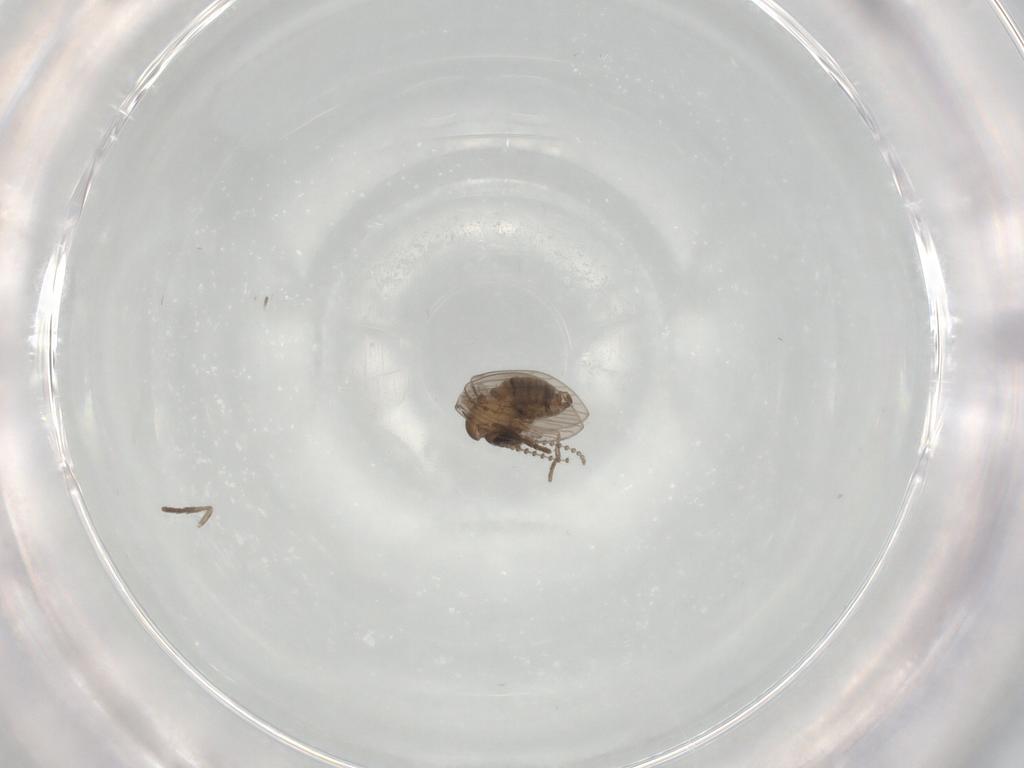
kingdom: Animalia
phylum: Arthropoda
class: Insecta
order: Diptera
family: Psychodidae
